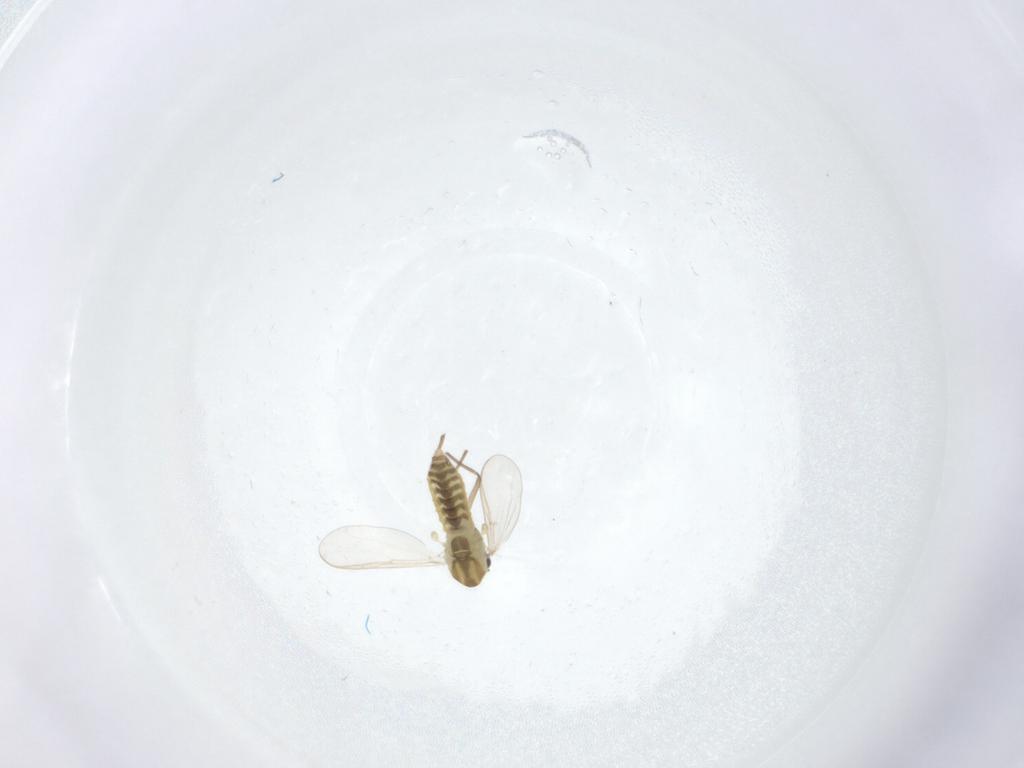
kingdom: Animalia
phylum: Arthropoda
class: Insecta
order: Diptera
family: Chironomidae
